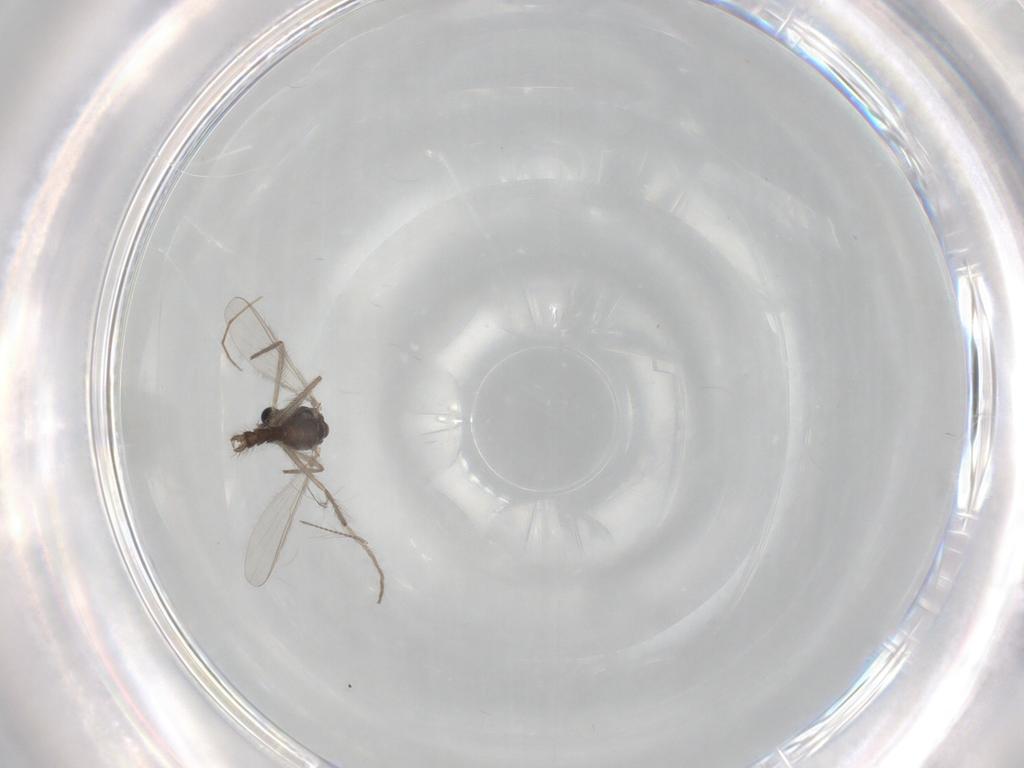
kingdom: Animalia
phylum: Arthropoda
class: Insecta
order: Diptera
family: Chironomidae
